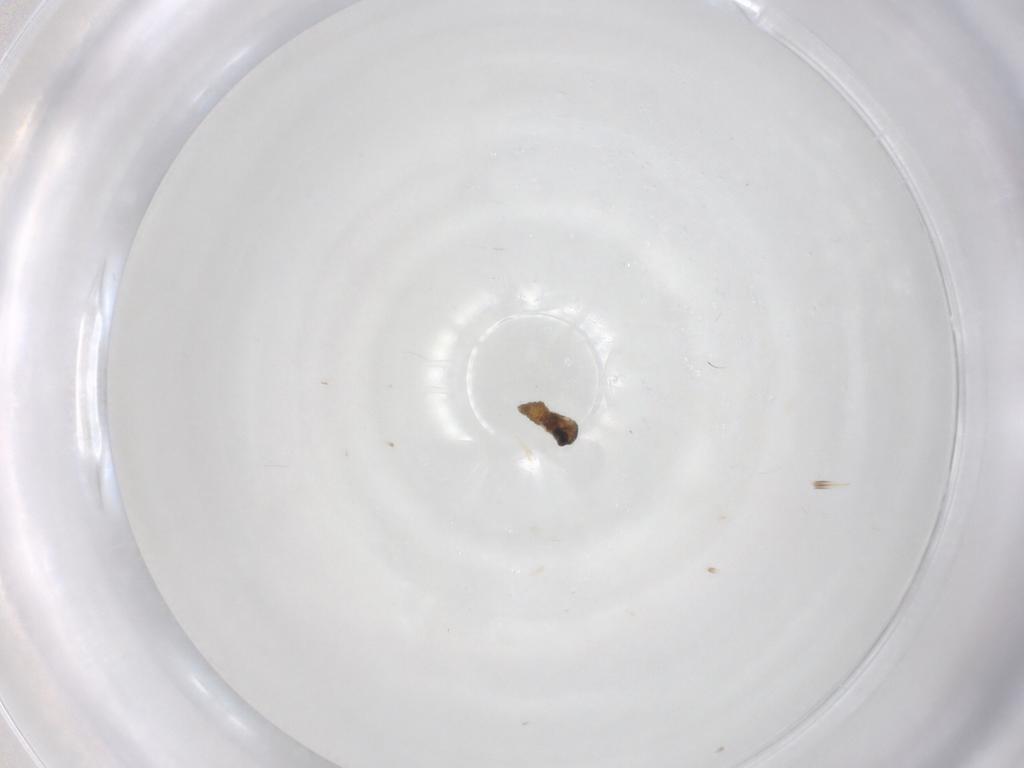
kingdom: Animalia
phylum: Arthropoda
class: Insecta
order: Diptera
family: Cecidomyiidae
